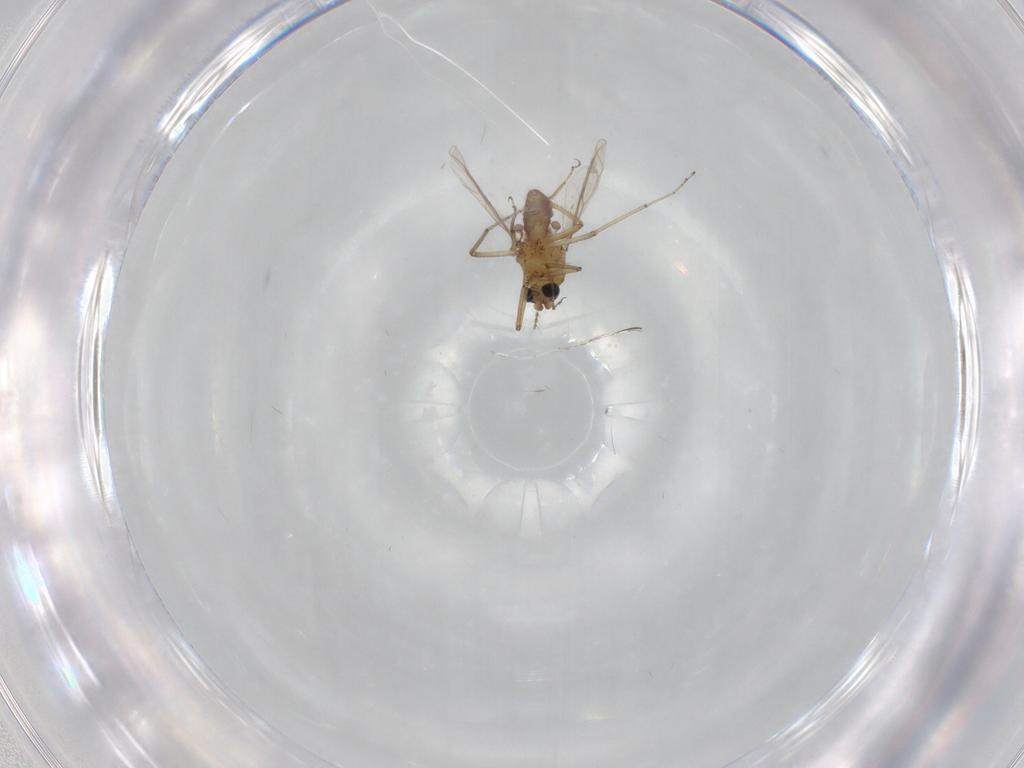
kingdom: Animalia
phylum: Arthropoda
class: Insecta
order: Diptera
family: Ceratopogonidae
